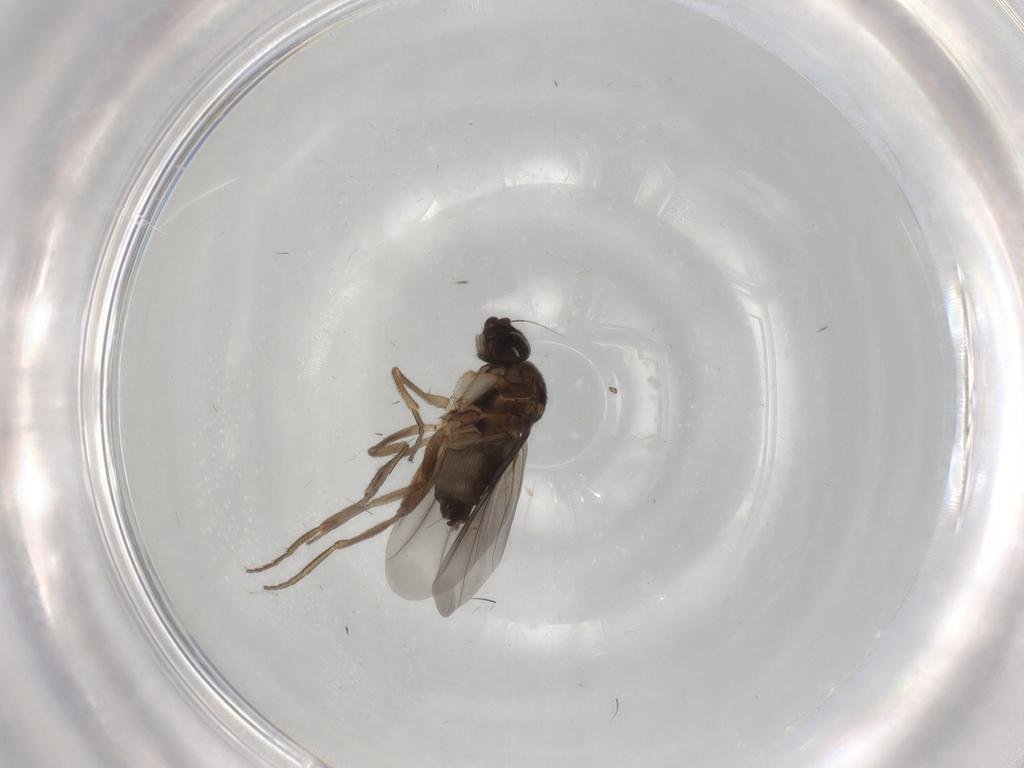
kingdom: Animalia
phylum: Arthropoda
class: Insecta
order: Diptera
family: Phoridae
